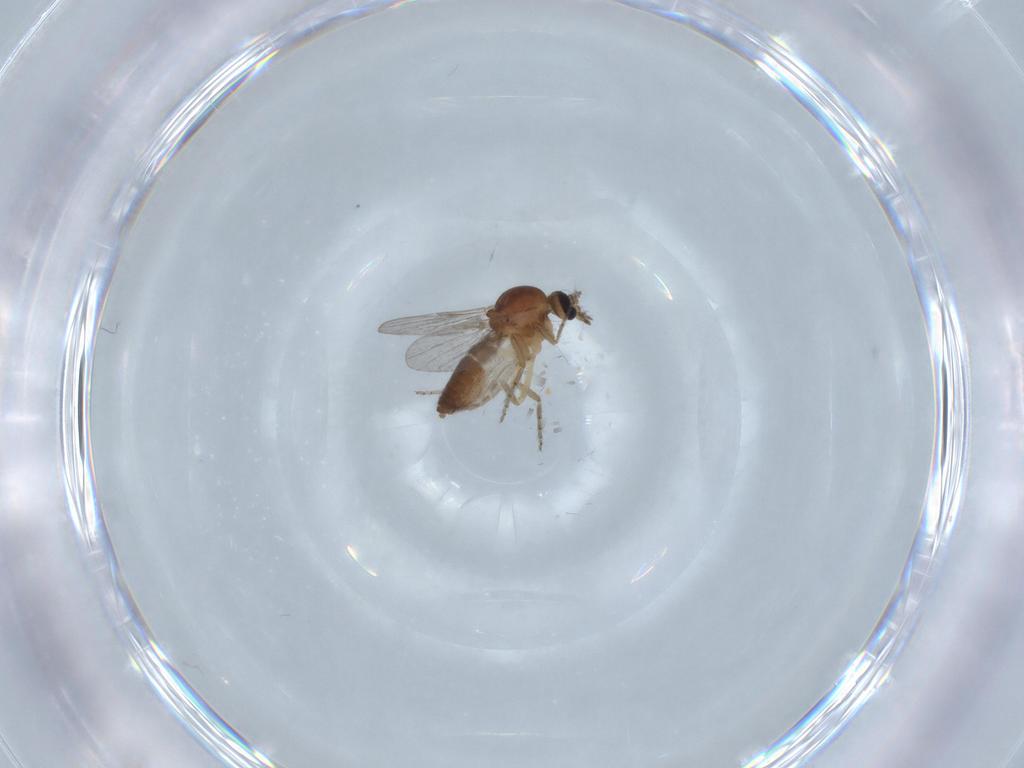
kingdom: Animalia
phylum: Arthropoda
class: Insecta
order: Diptera
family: Ceratopogonidae
